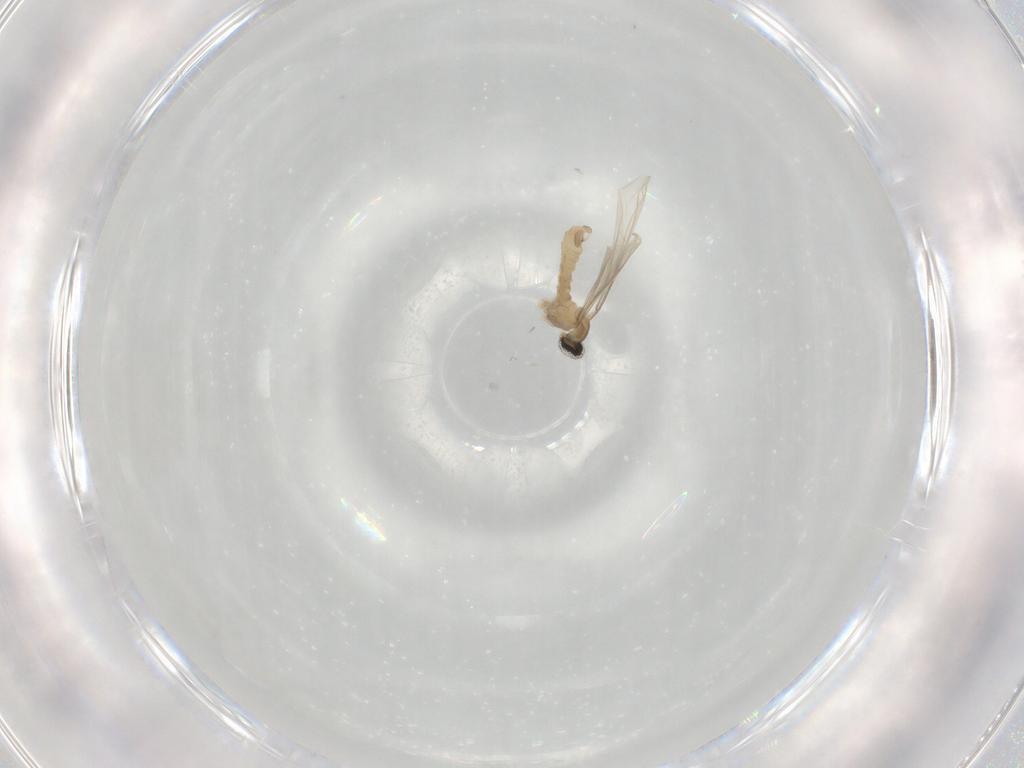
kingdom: Animalia
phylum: Arthropoda
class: Insecta
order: Diptera
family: Cecidomyiidae
